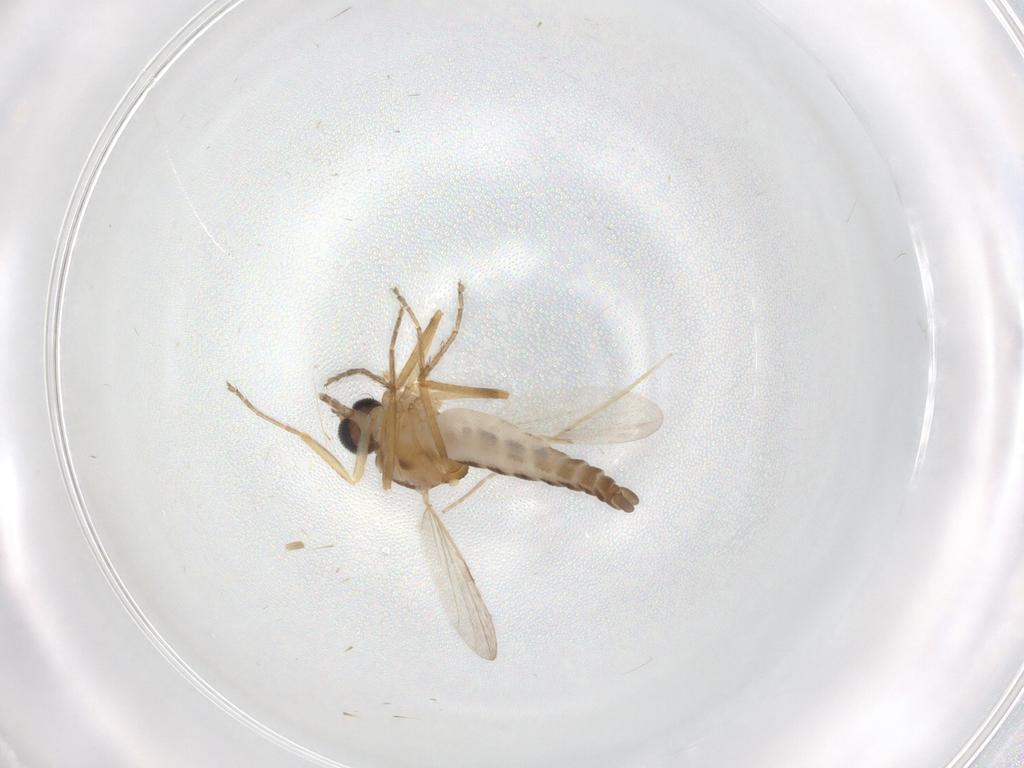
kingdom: Animalia
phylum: Arthropoda
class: Insecta
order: Diptera
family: Ceratopogonidae
